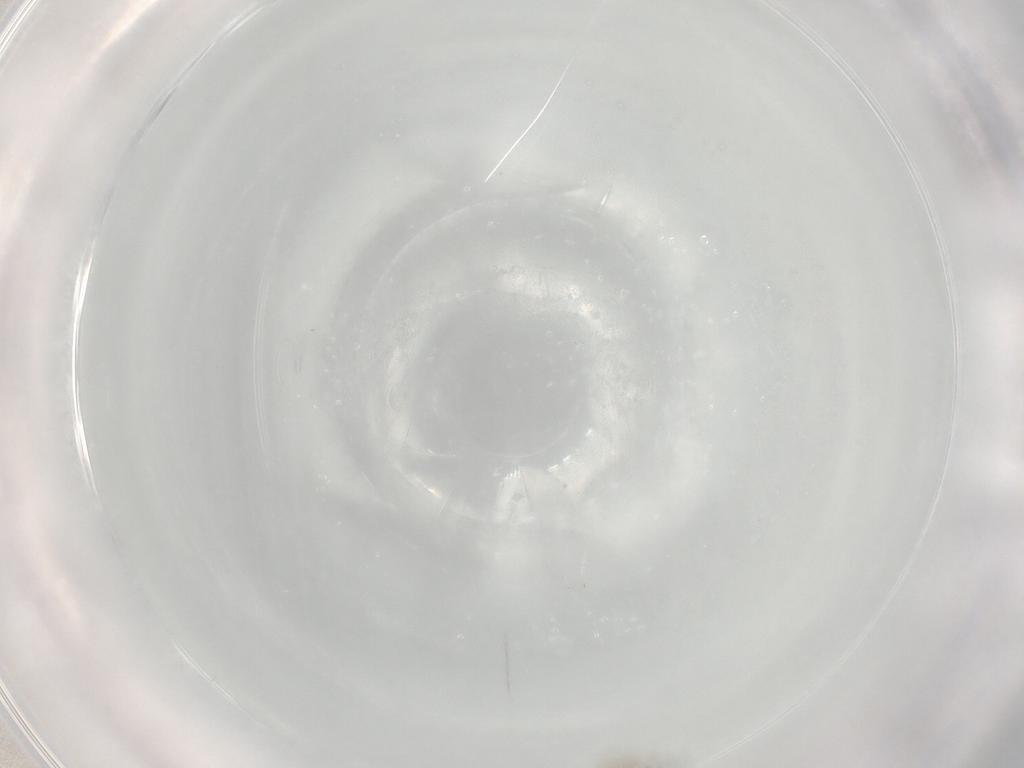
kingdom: Animalia
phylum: Arthropoda
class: Insecta
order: Diptera
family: Cecidomyiidae
